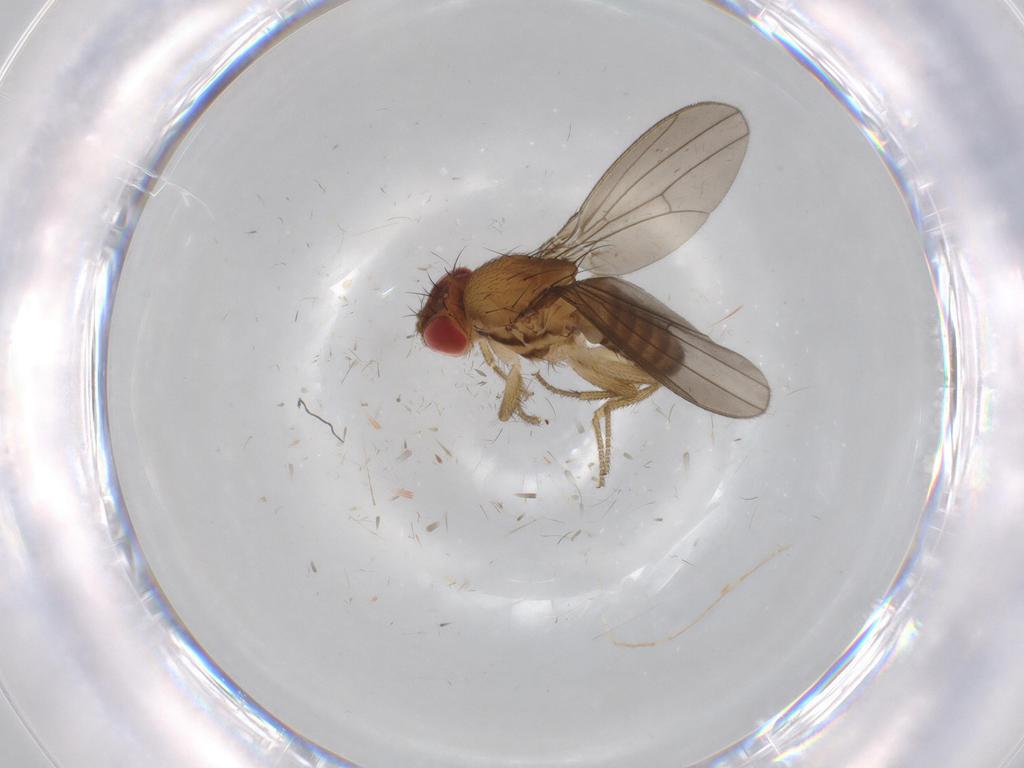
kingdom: Animalia
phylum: Arthropoda
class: Insecta
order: Diptera
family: Drosophilidae
